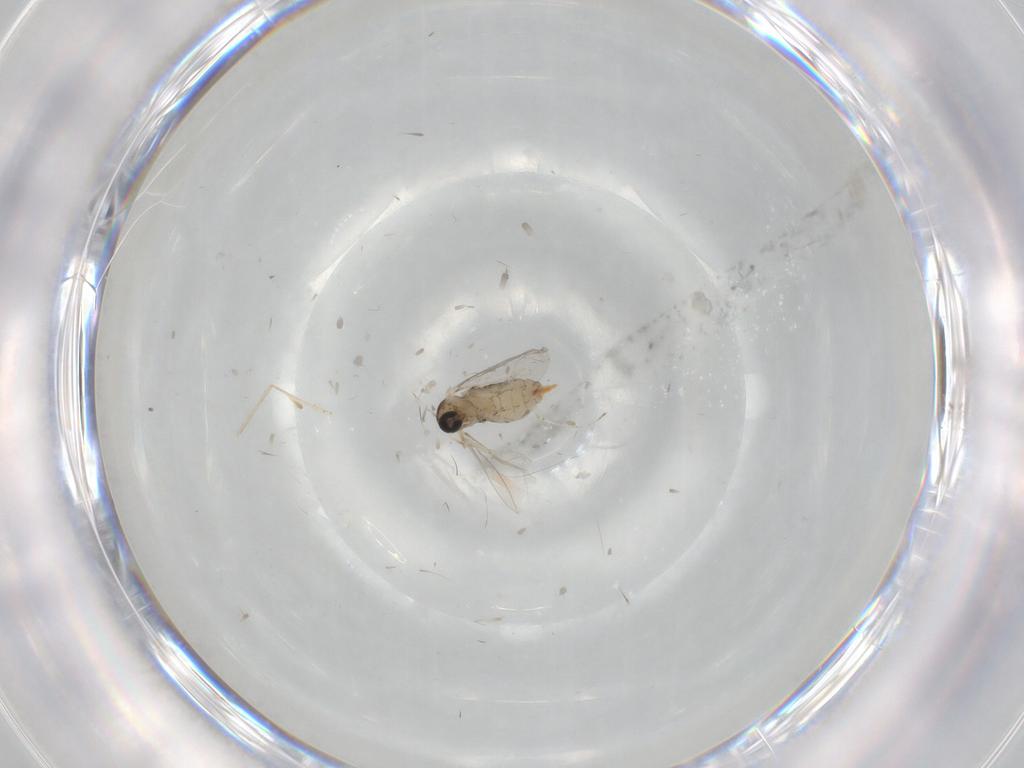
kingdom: Animalia
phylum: Arthropoda
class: Insecta
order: Diptera
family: Cecidomyiidae
